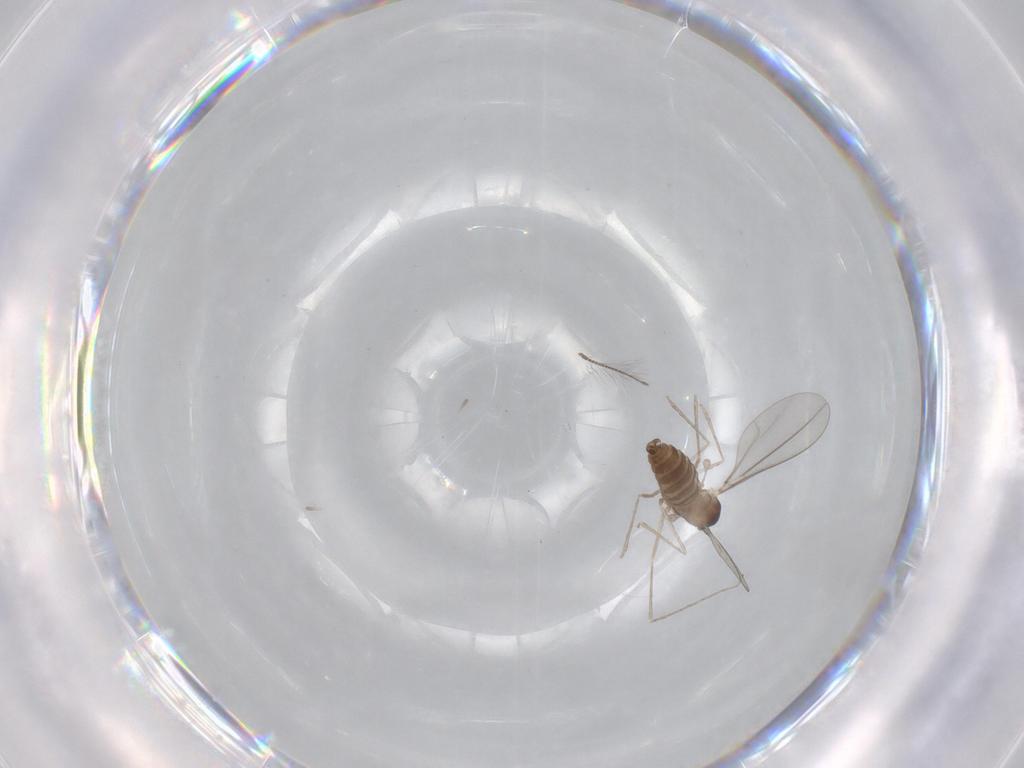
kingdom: Animalia
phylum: Arthropoda
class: Insecta
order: Diptera
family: Cecidomyiidae
